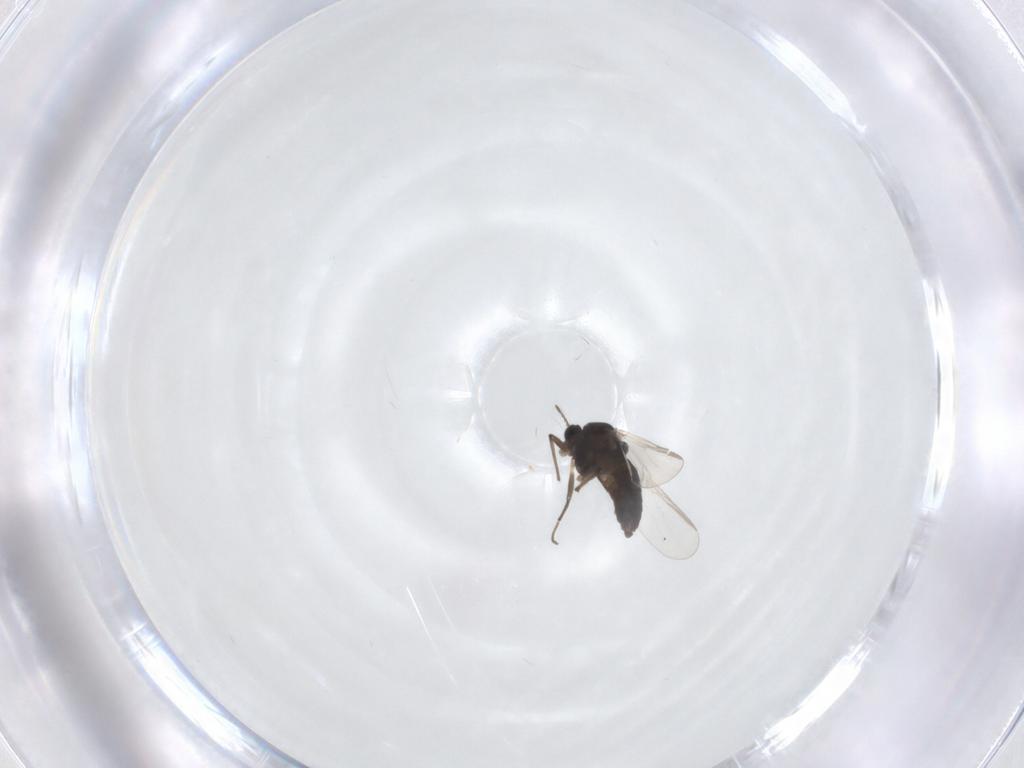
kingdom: Animalia
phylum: Arthropoda
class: Insecta
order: Diptera
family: Chironomidae
